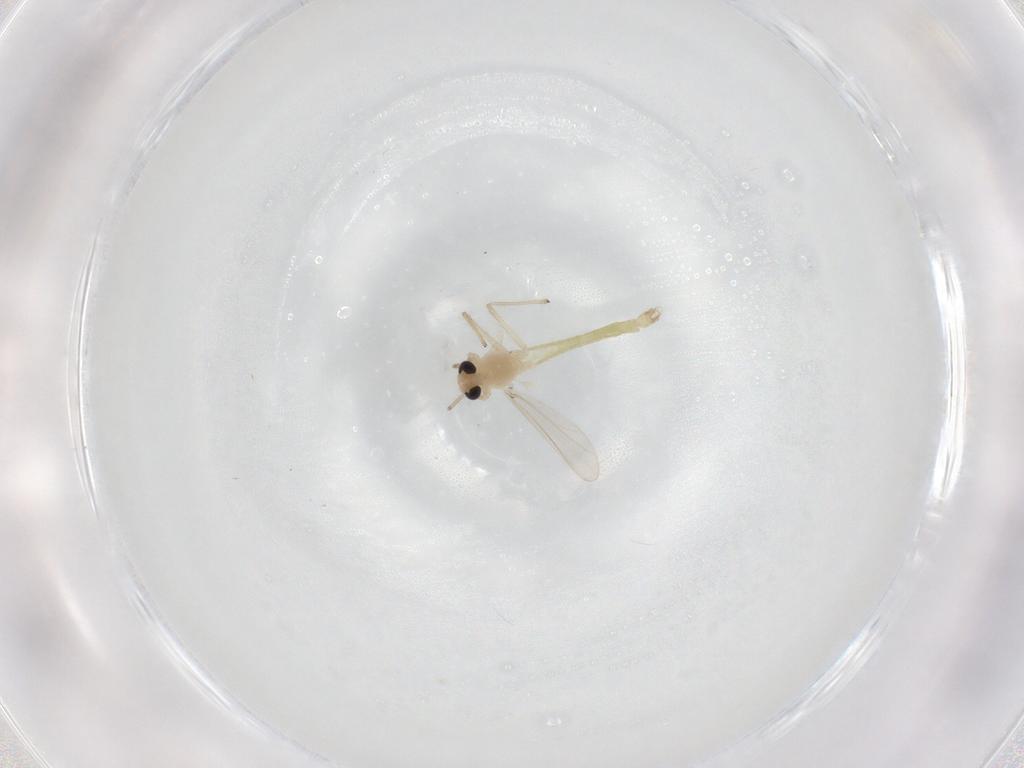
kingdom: Animalia
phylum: Arthropoda
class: Insecta
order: Diptera
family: Chironomidae
